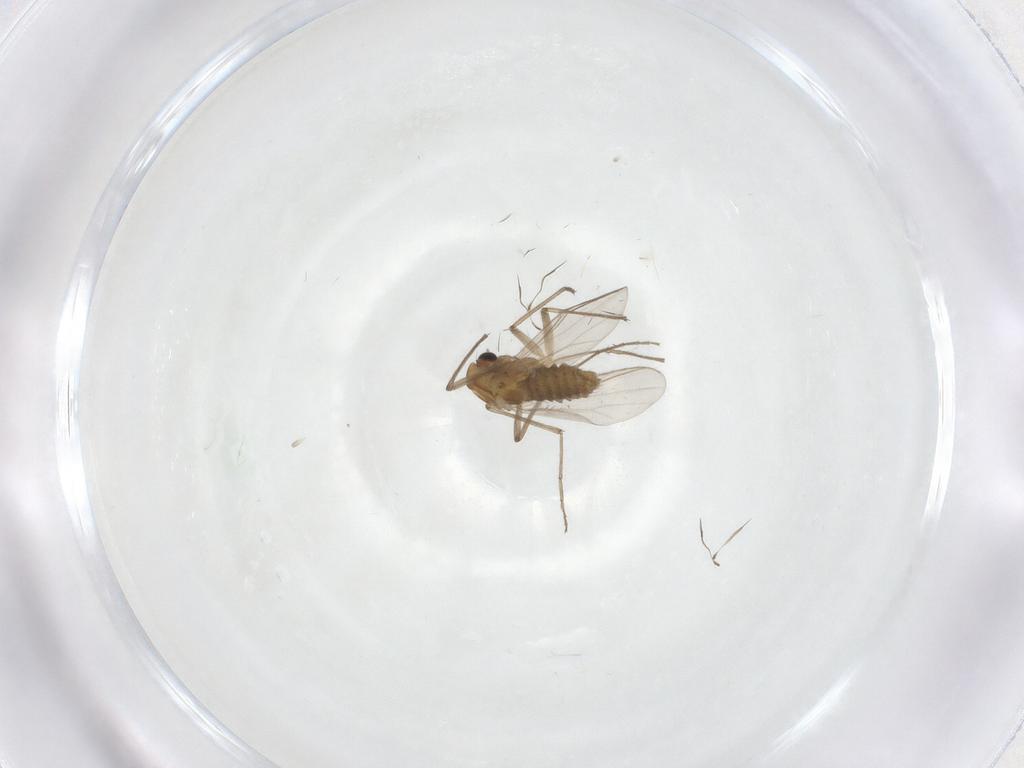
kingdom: Animalia
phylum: Arthropoda
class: Insecta
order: Diptera
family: Chironomidae
